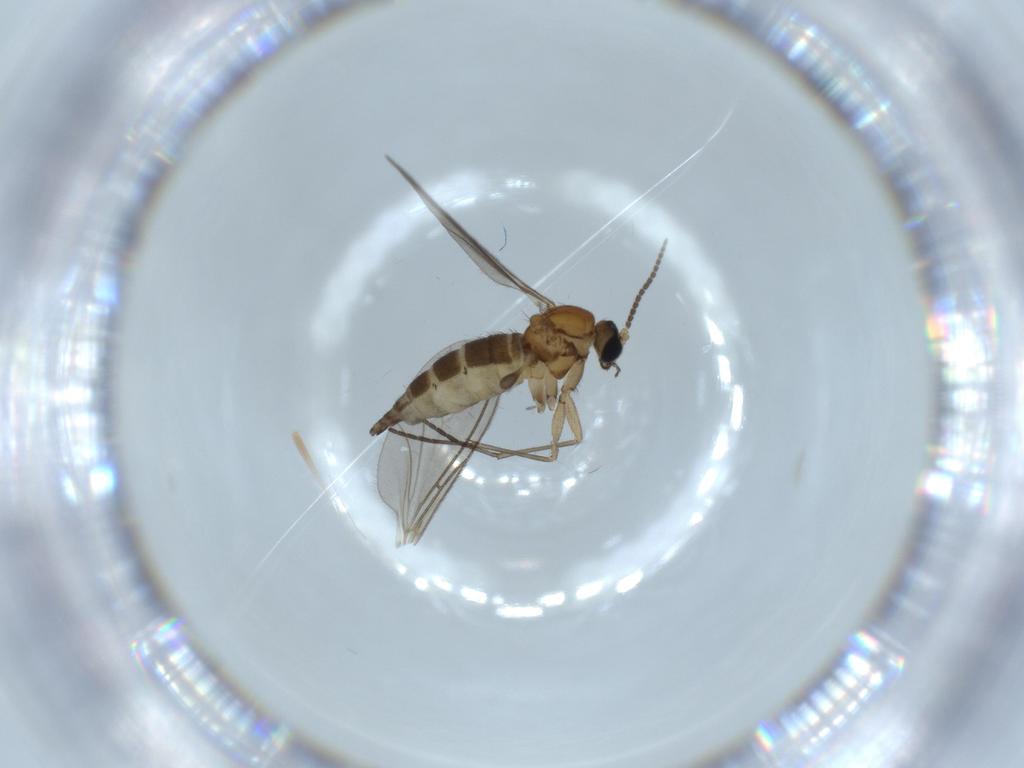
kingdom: Animalia
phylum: Arthropoda
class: Insecta
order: Diptera
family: Sciaridae
